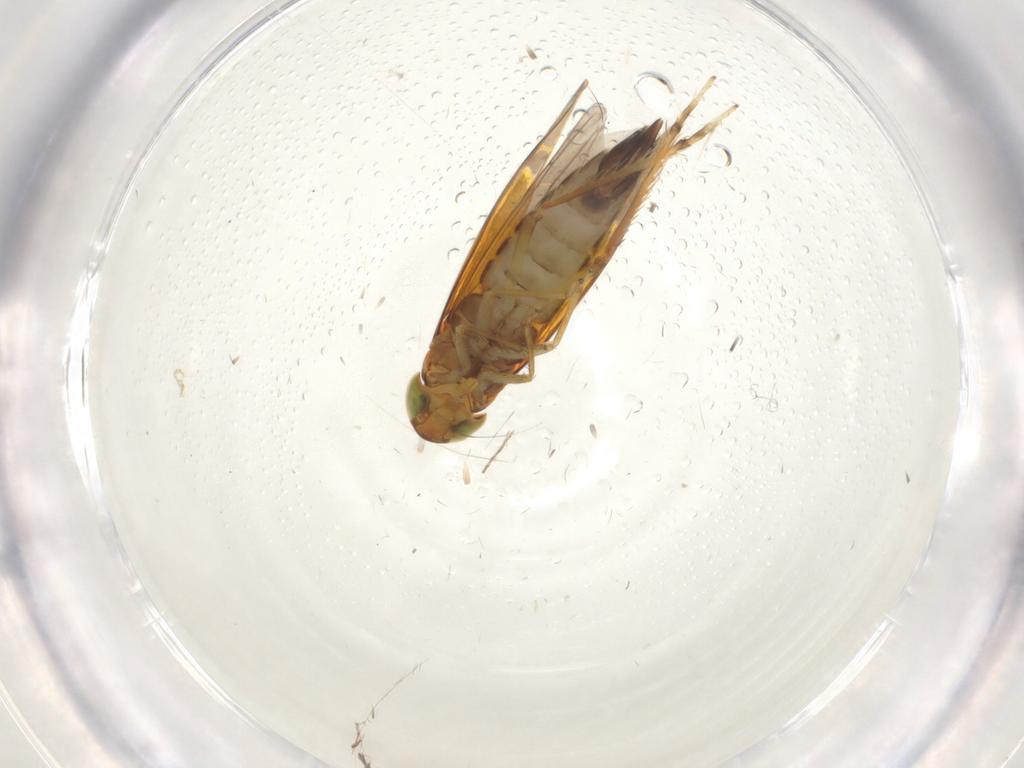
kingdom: Animalia
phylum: Arthropoda
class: Insecta
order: Hemiptera
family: Cicadellidae
